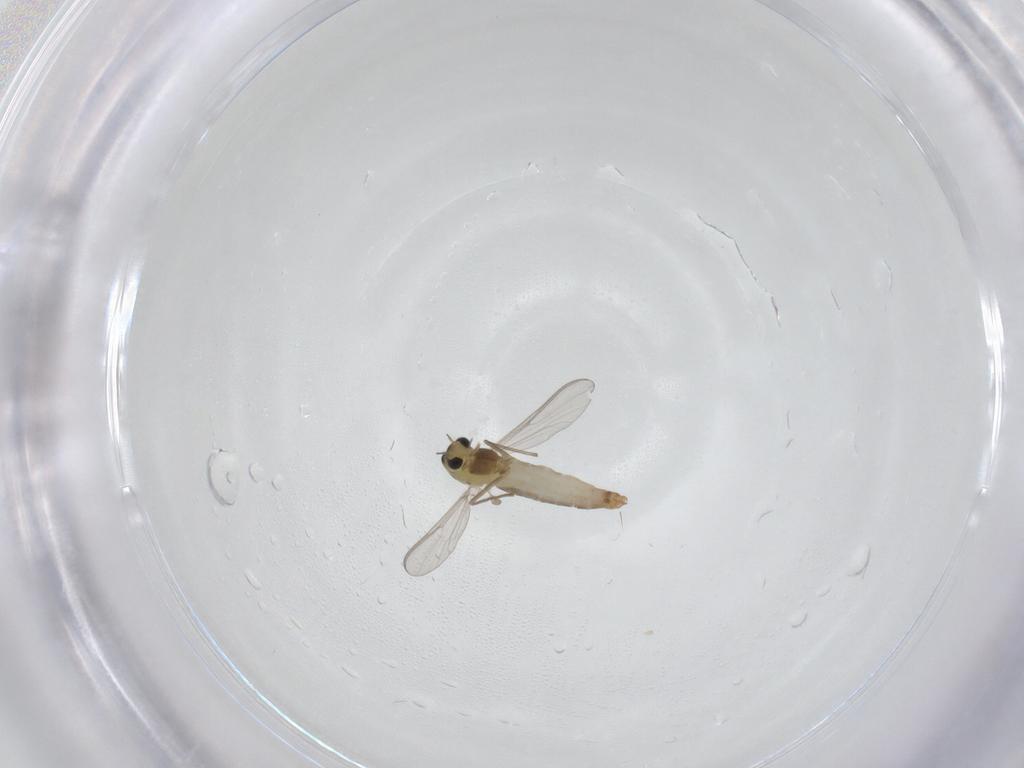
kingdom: Animalia
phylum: Arthropoda
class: Insecta
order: Diptera
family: Chironomidae
